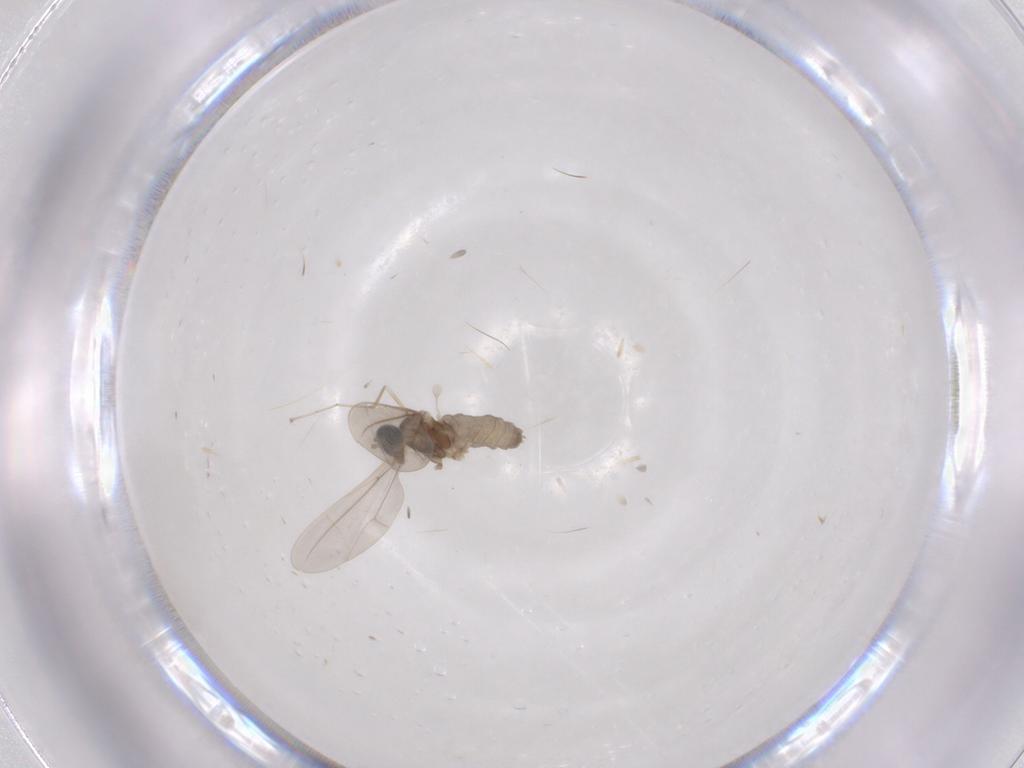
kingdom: Animalia
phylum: Arthropoda
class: Insecta
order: Diptera
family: Cecidomyiidae
